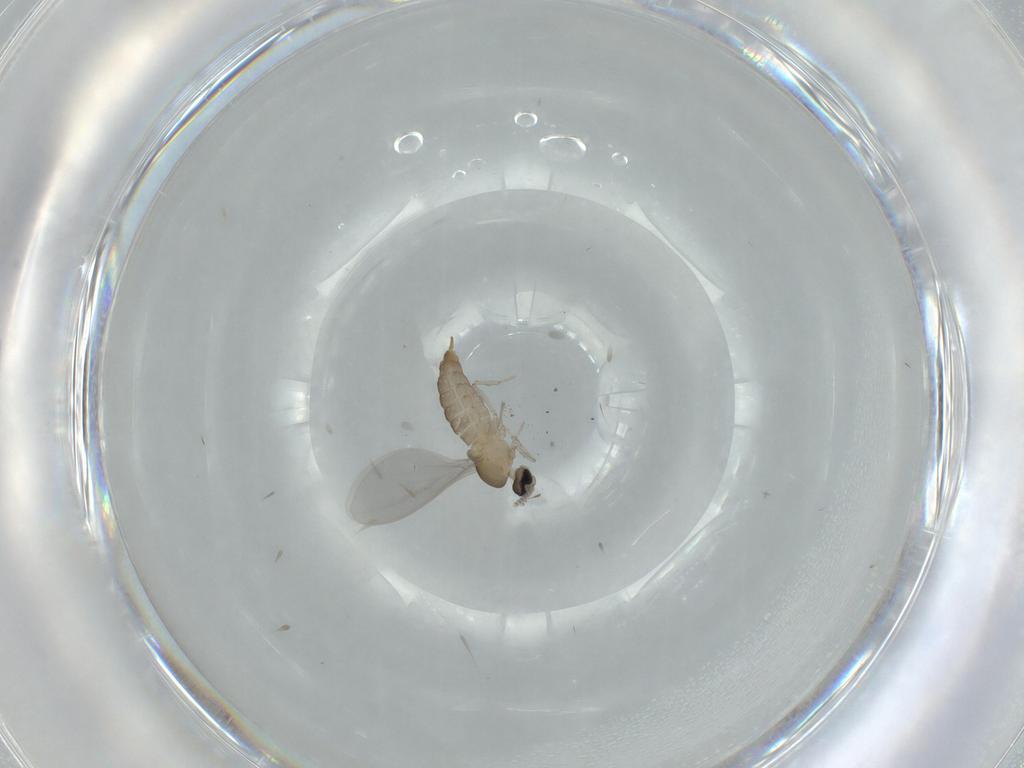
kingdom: Animalia
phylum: Arthropoda
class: Insecta
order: Diptera
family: Cecidomyiidae
